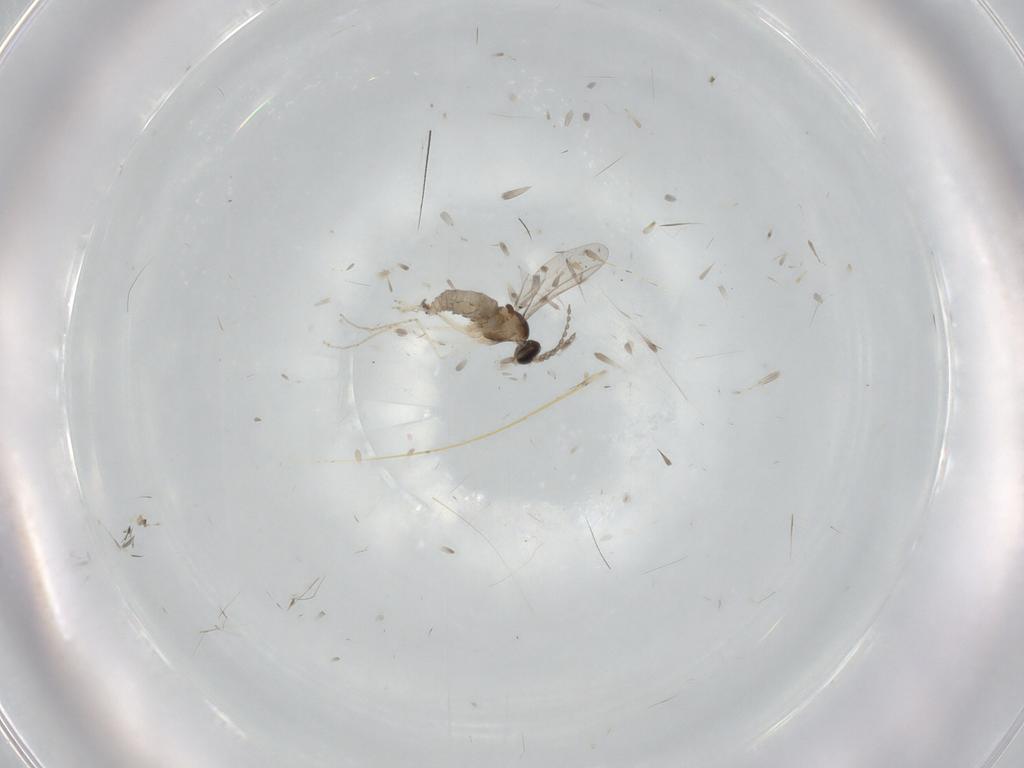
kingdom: Animalia
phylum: Arthropoda
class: Insecta
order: Diptera
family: Cecidomyiidae
